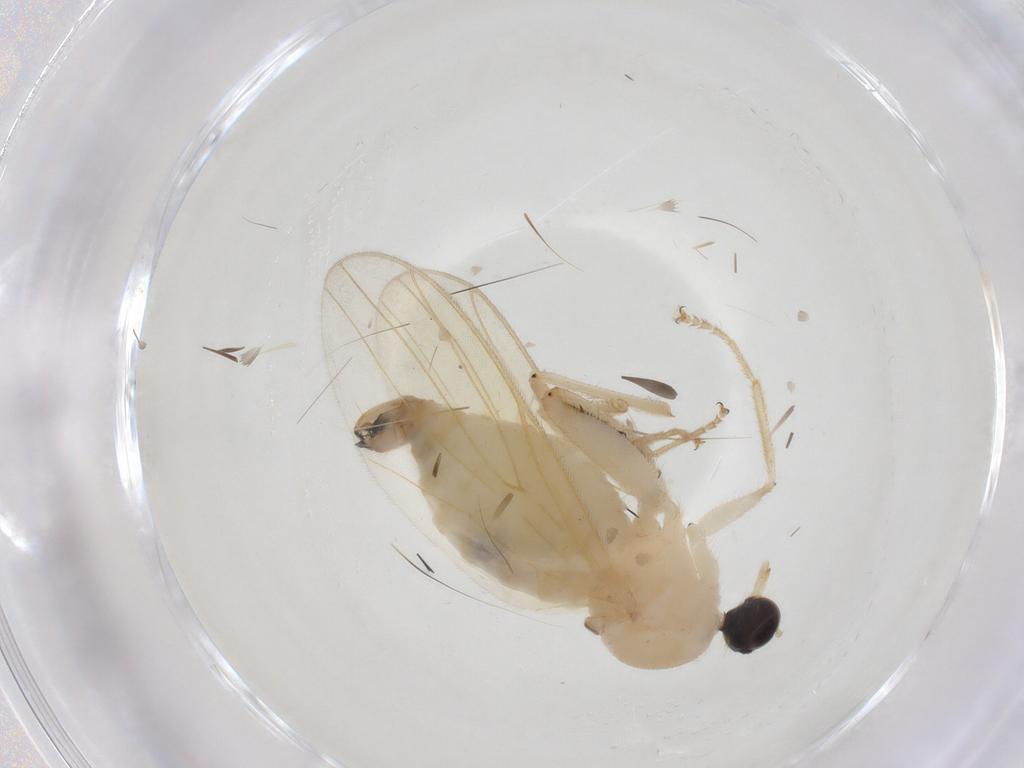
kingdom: Animalia
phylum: Arthropoda
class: Insecta
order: Diptera
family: Hybotidae
